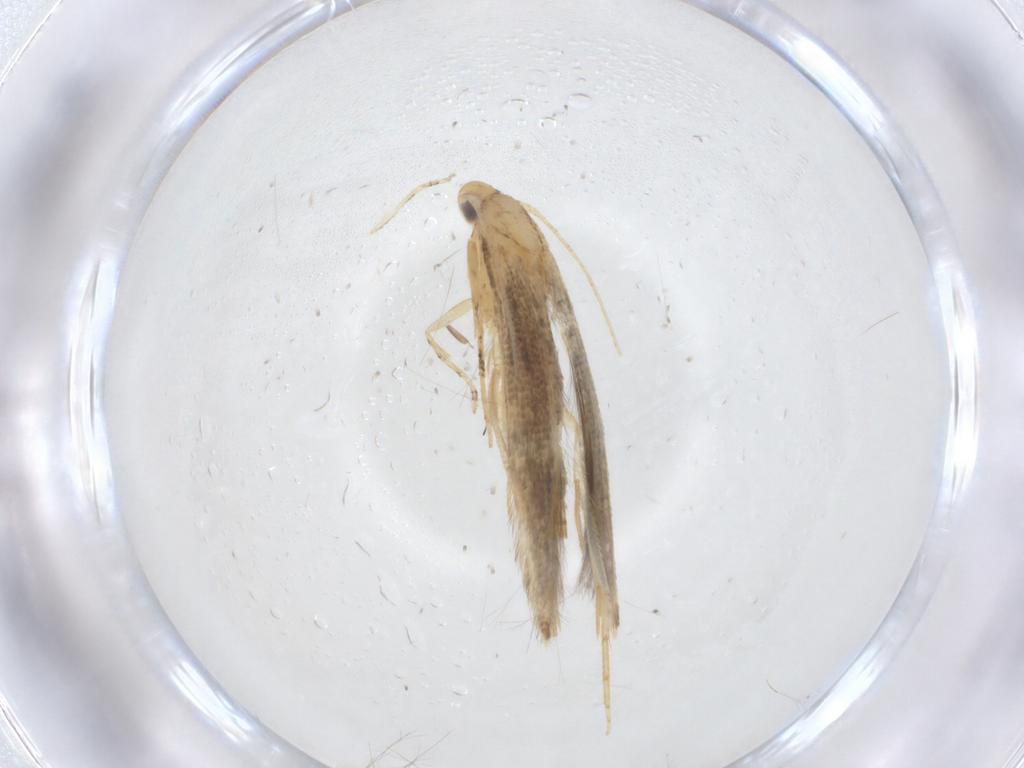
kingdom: Animalia
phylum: Arthropoda
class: Insecta
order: Lepidoptera
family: Tineidae
